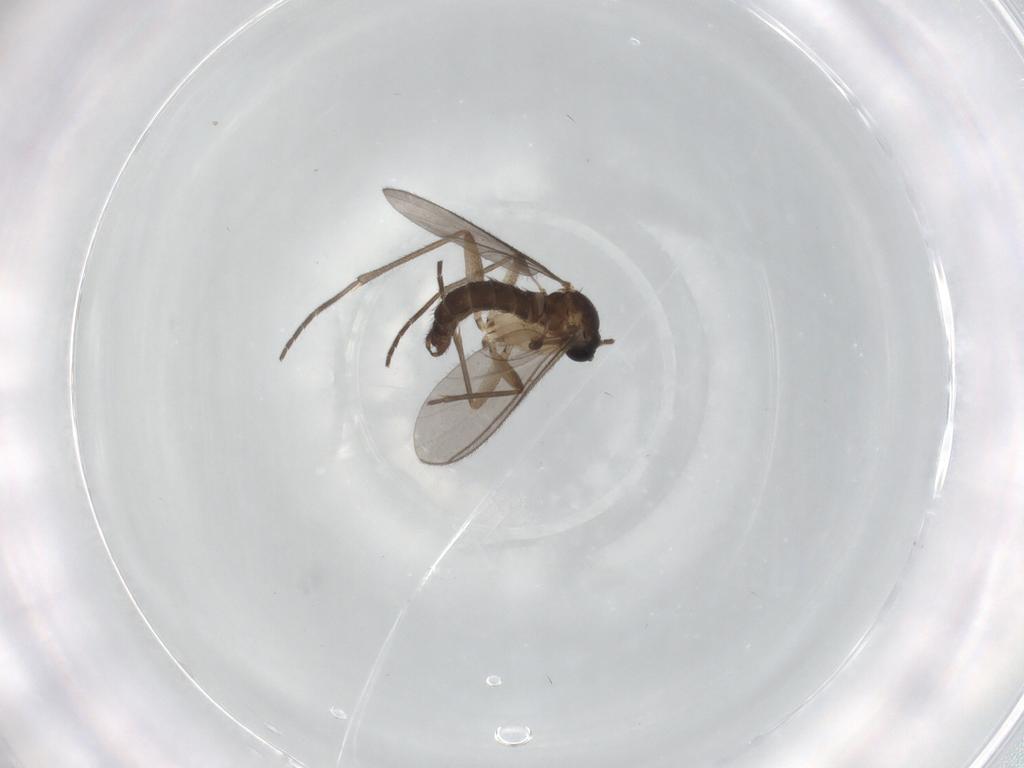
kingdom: Animalia
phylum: Arthropoda
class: Insecta
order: Diptera
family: Sciaridae
